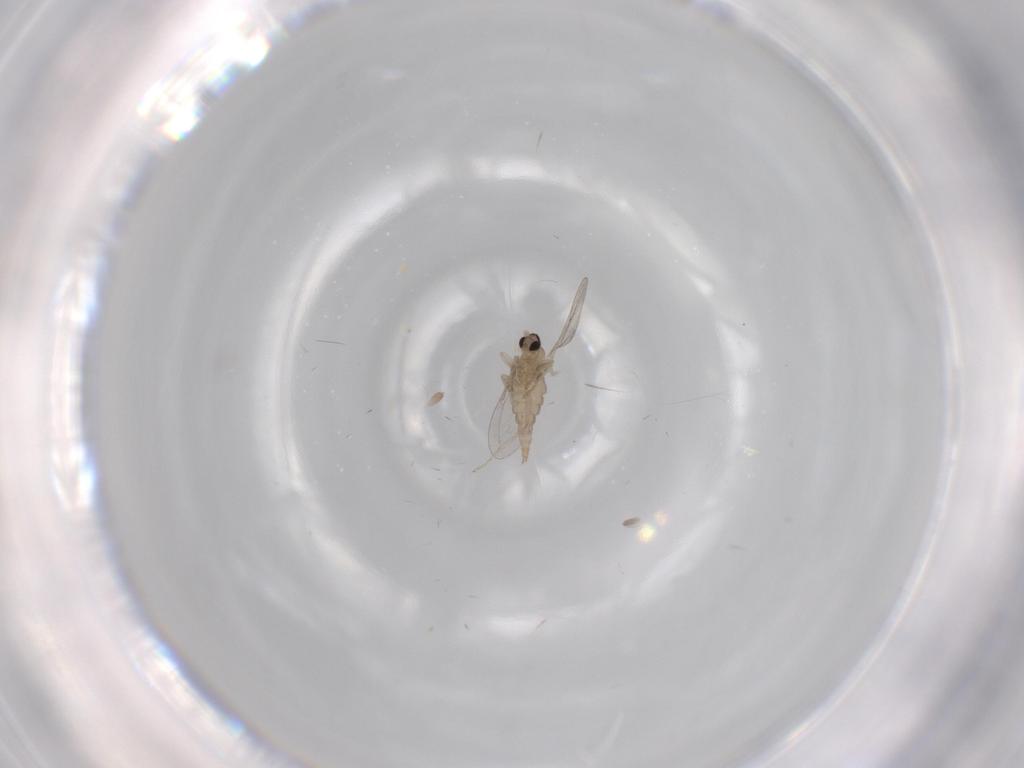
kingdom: Animalia
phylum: Arthropoda
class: Insecta
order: Diptera
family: Cecidomyiidae
